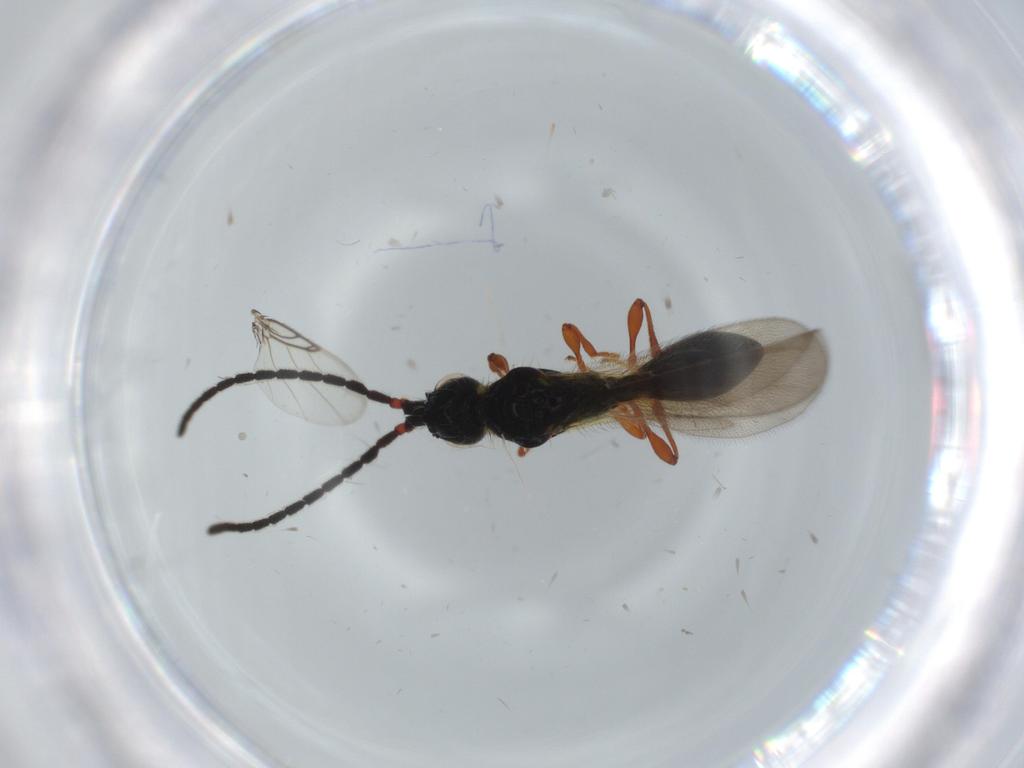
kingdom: Animalia
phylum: Arthropoda
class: Insecta
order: Hymenoptera
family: Diapriidae
